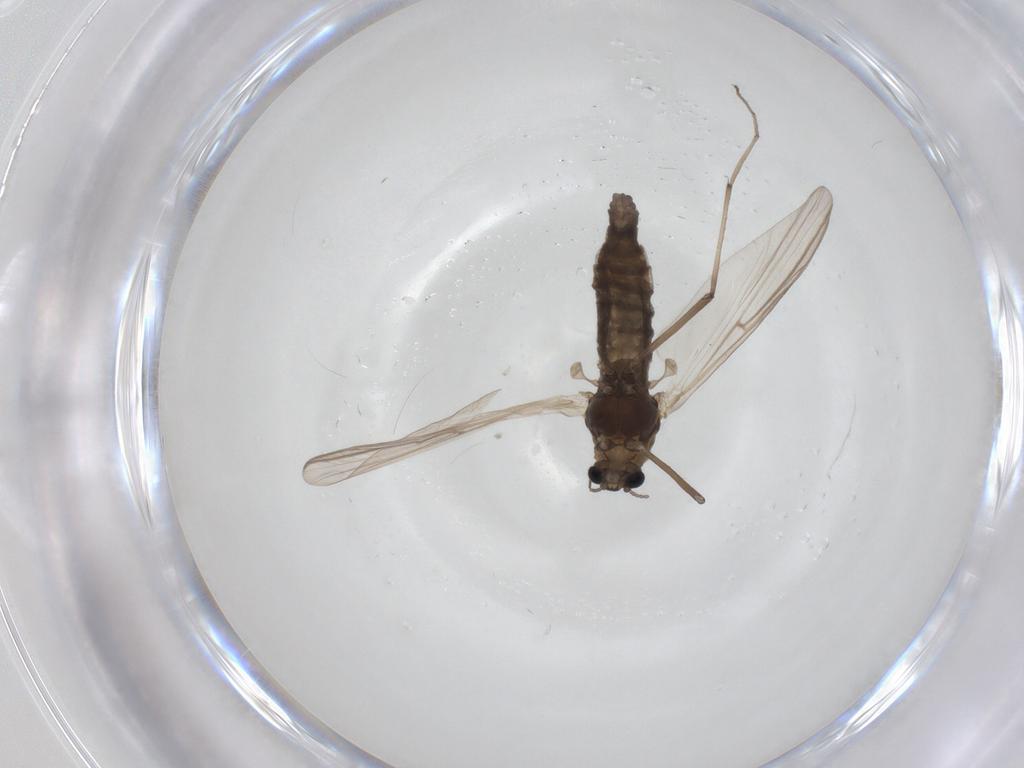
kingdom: Animalia
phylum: Arthropoda
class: Insecta
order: Diptera
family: Chironomidae
